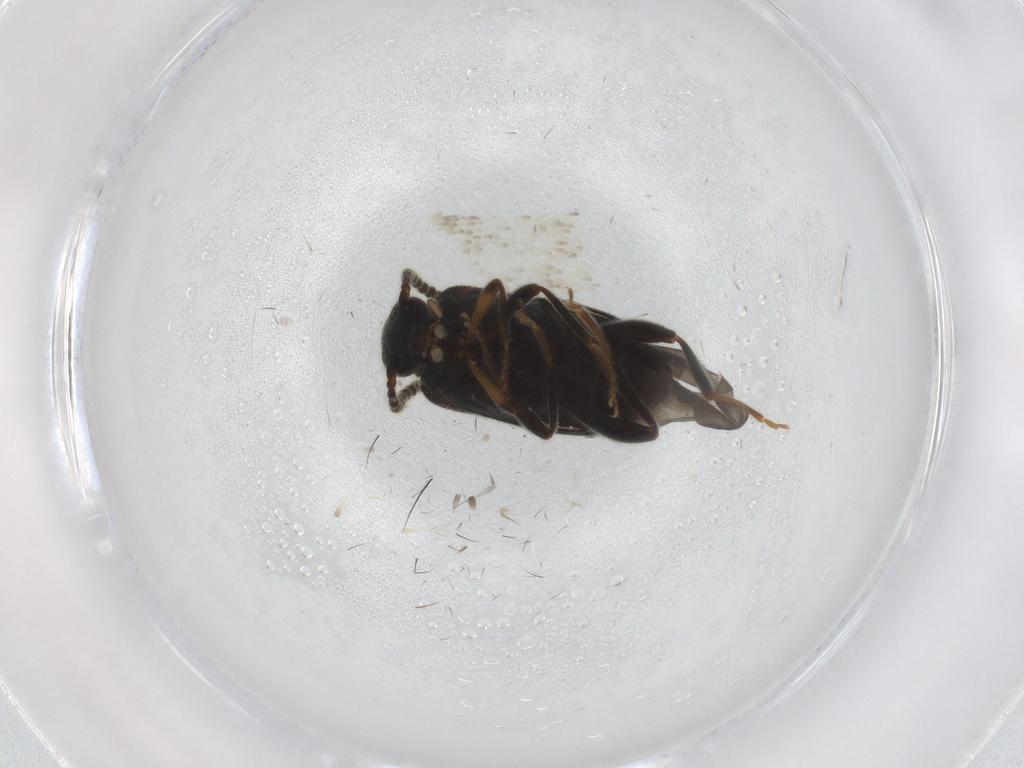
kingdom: Animalia
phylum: Arthropoda
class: Insecta
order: Coleoptera
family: Aderidae
